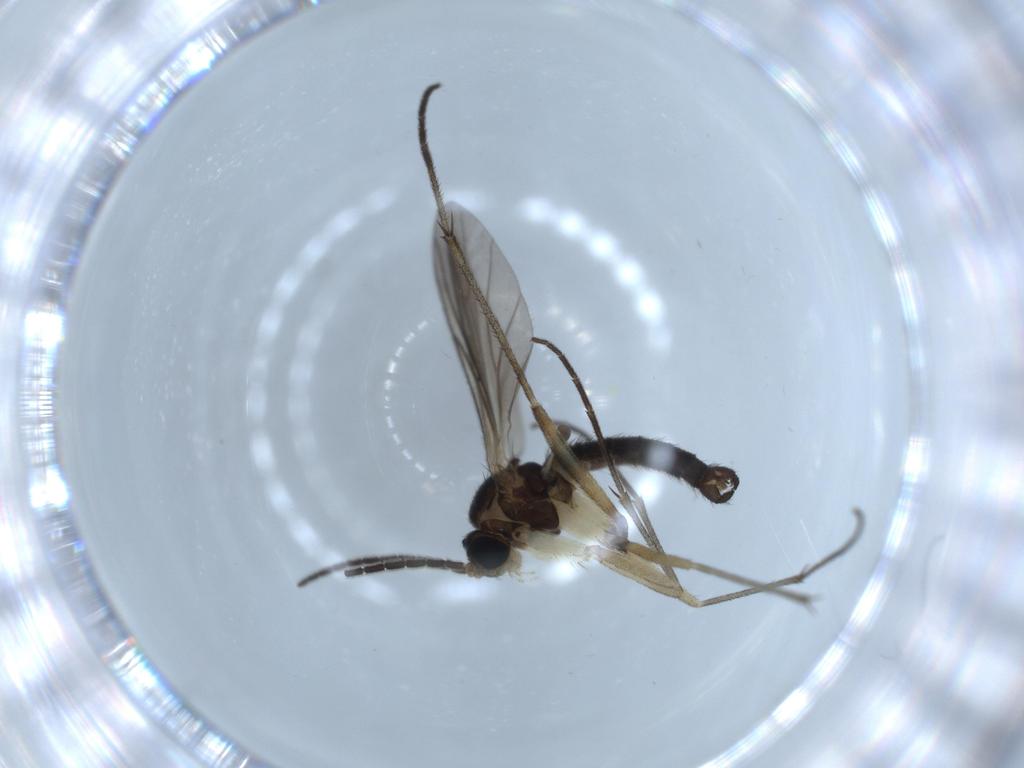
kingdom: Animalia
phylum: Arthropoda
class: Insecta
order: Diptera
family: Sciaridae
